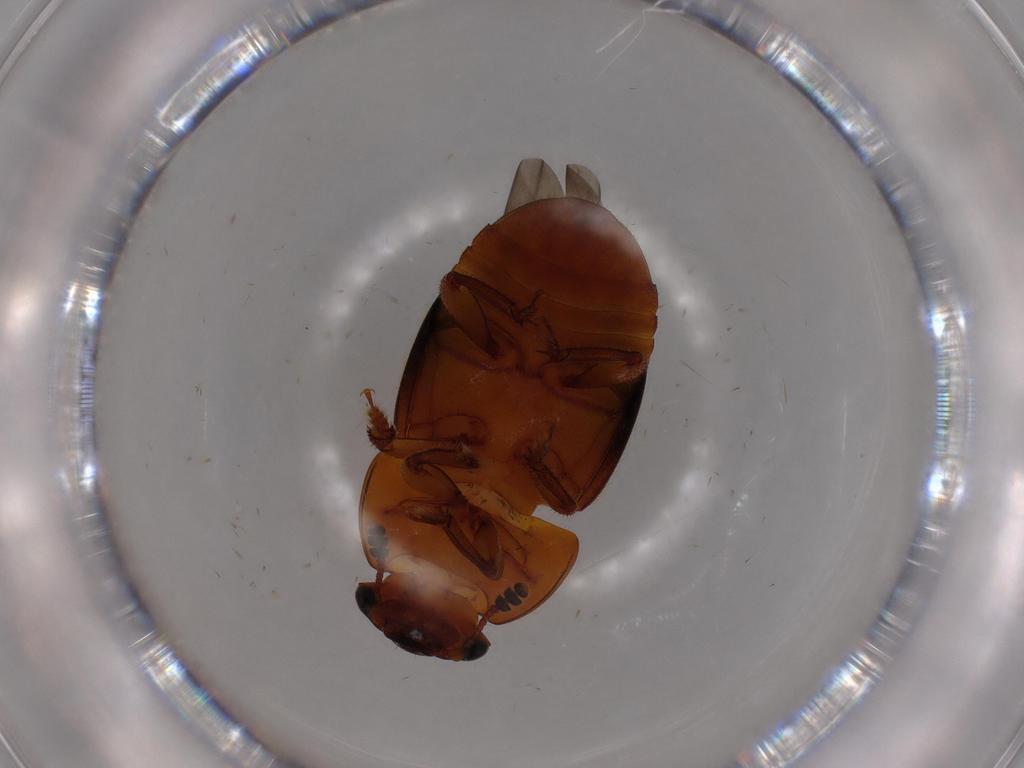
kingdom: Animalia
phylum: Arthropoda
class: Insecta
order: Coleoptera
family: Nitidulidae
